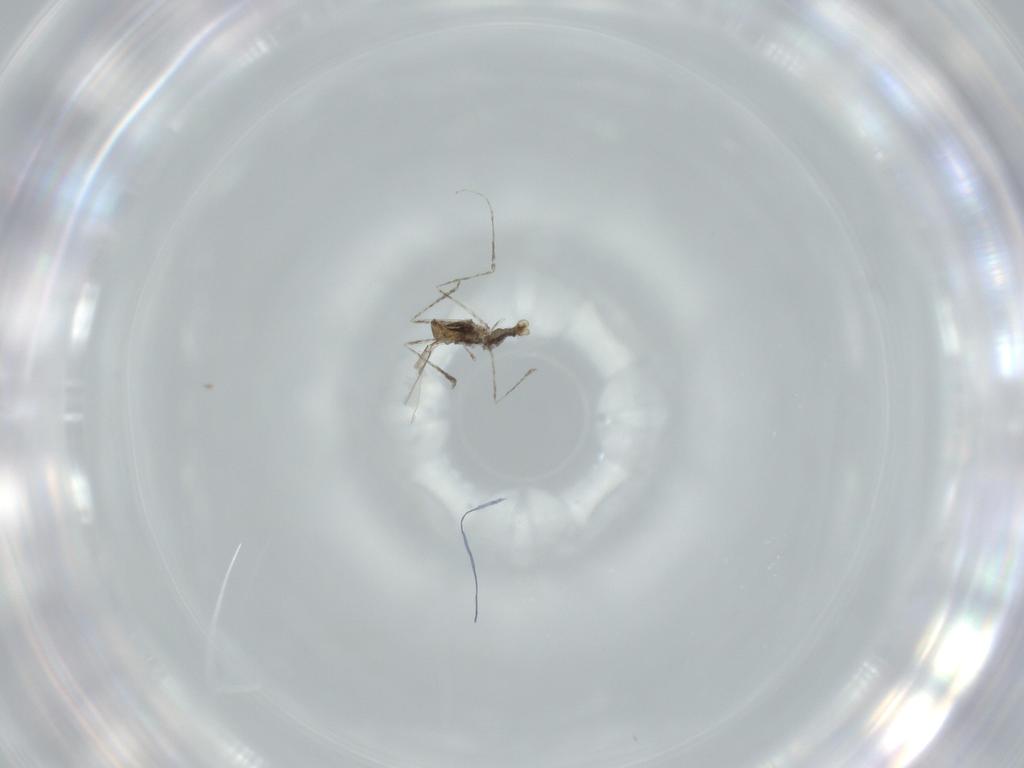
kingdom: Animalia
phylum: Arthropoda
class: Insecta
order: Diptera
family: Cecidomyiidae
